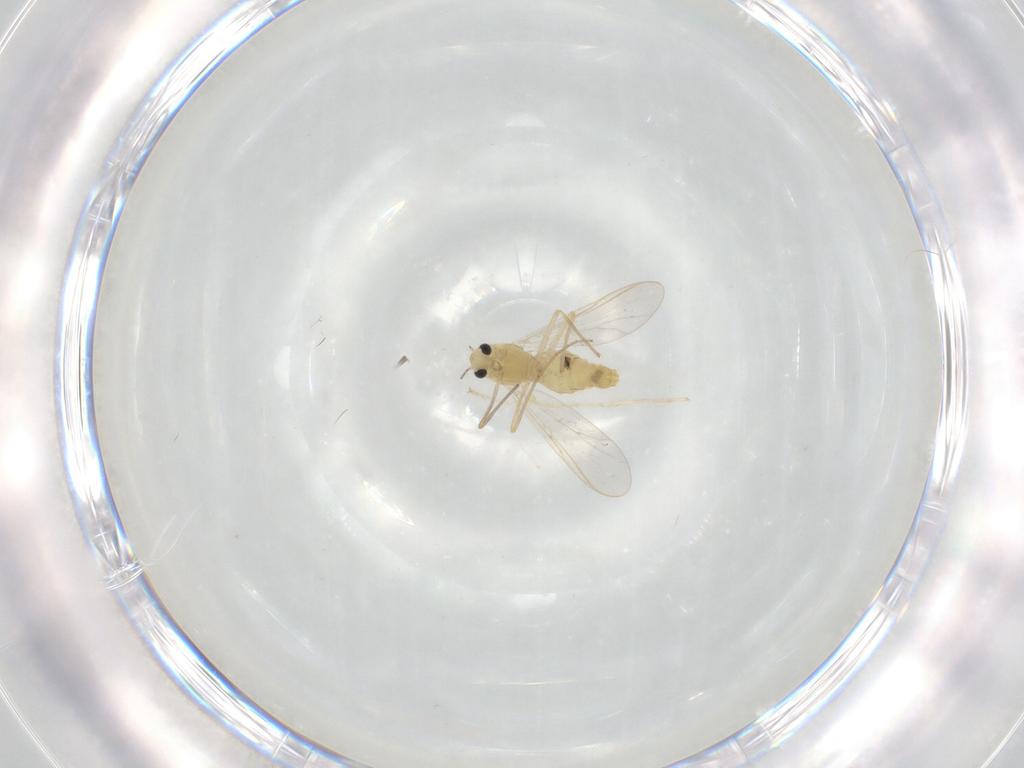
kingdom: Animalia
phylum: Arthropoda
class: Insecta
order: Diptera
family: Chironomidae
